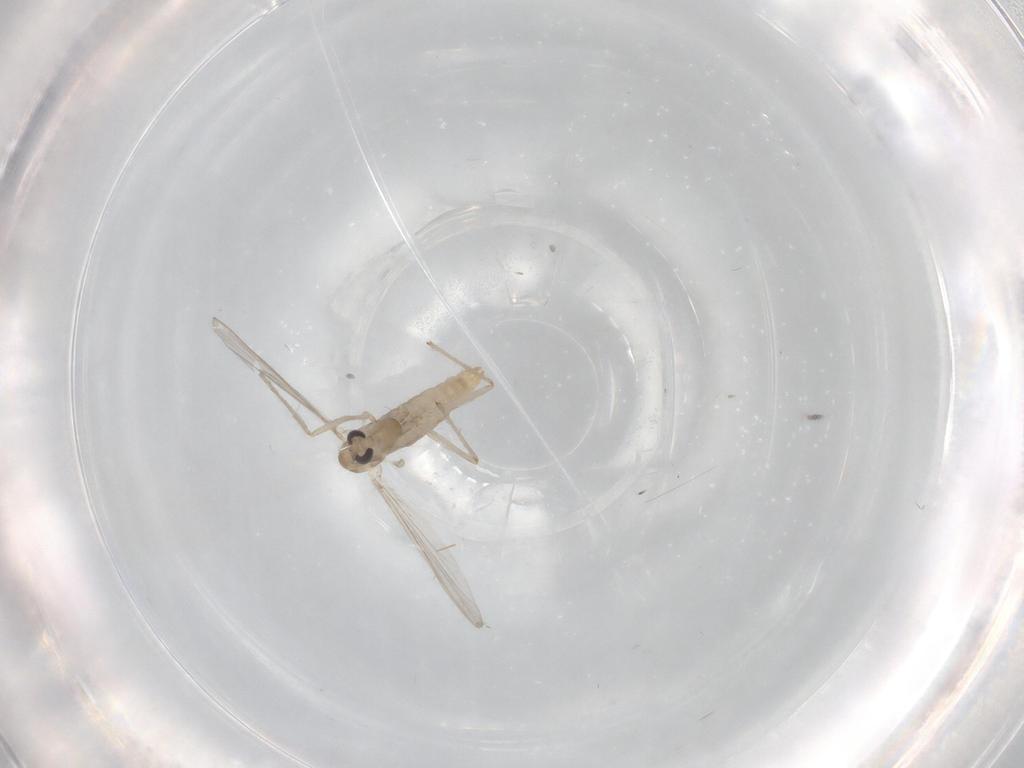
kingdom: Animalia
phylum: Arthropoda
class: Insecta
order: Diptera
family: Chironomidae
